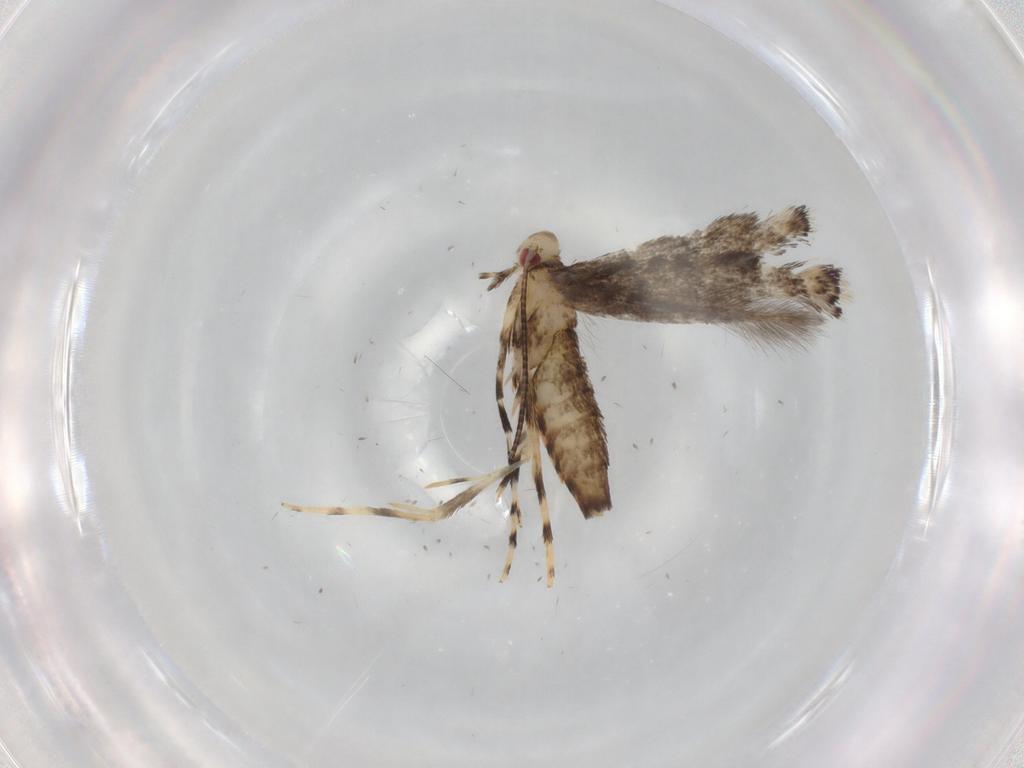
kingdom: Animalia
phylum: Arthropoda
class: Insecta
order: Lepidoptera
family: Gracillariidae
